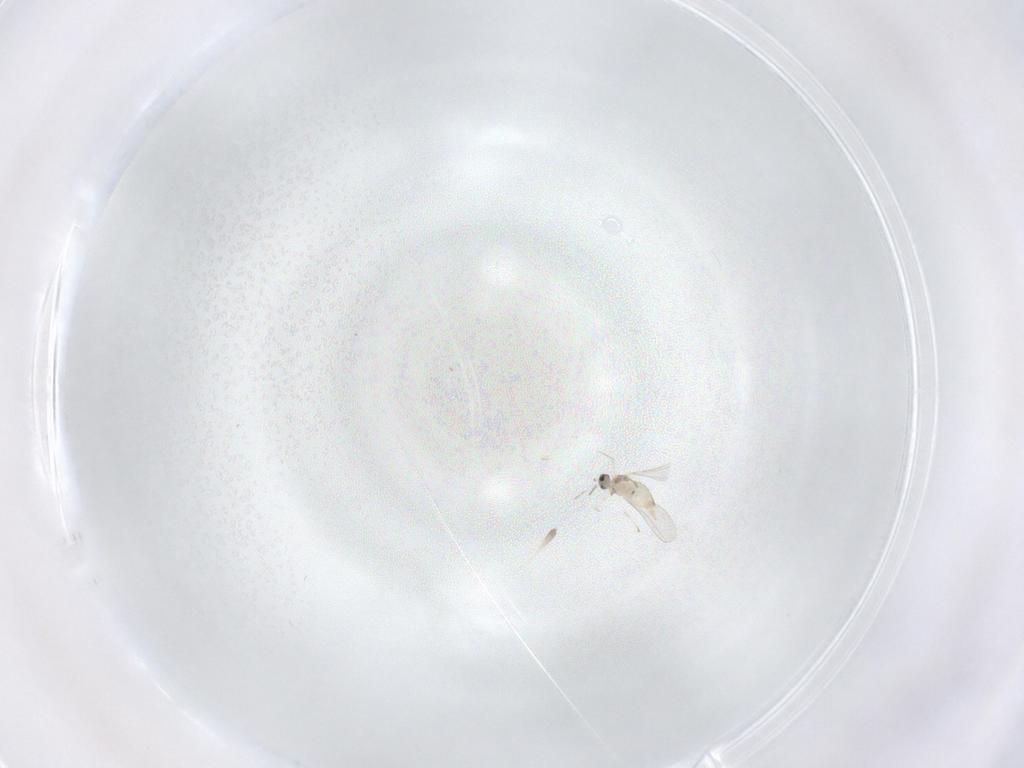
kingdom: Animalia
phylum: Arthropoda
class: Insecta
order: Diptera
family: Cecidomyiidae
